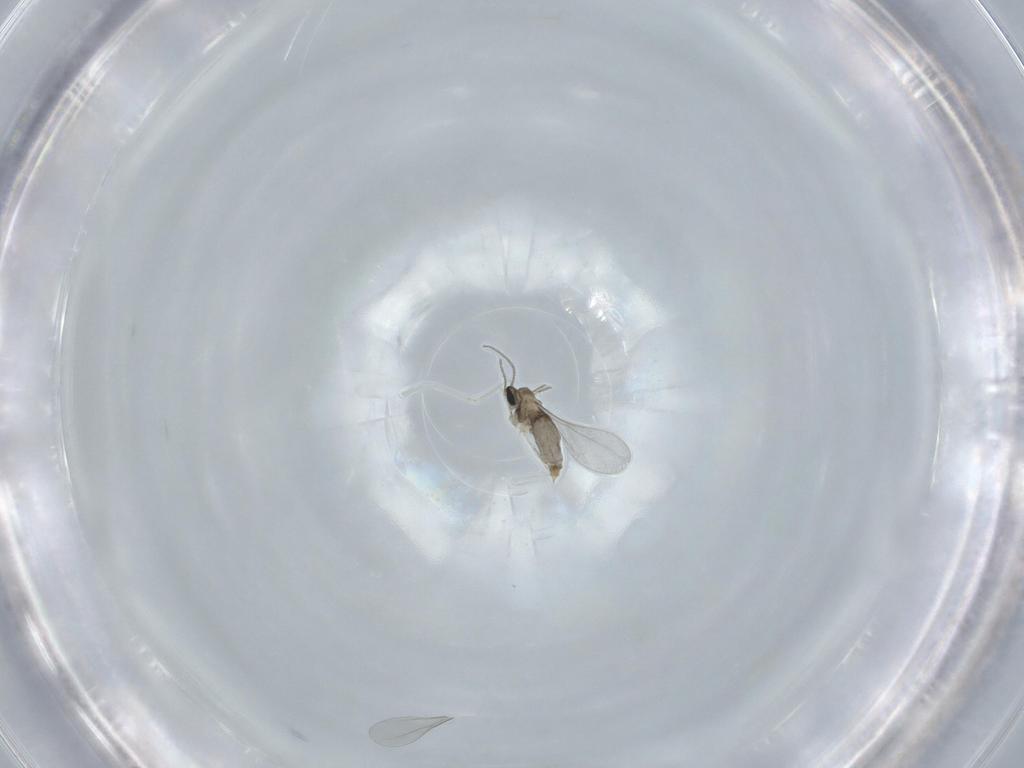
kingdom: Animalia
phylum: Arthropoda
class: Insecta
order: Diptera
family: Cecidomyiidae
